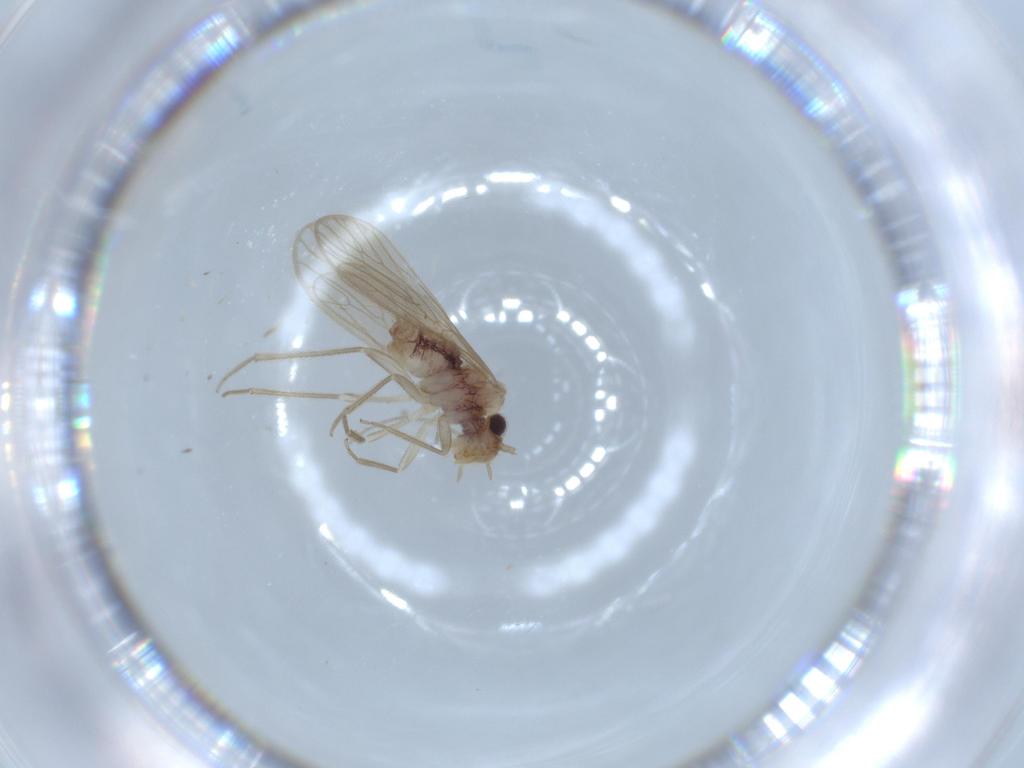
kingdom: Animalia
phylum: Arthropoda
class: Insecta
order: Psocodea
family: Dolabellopsocidae
